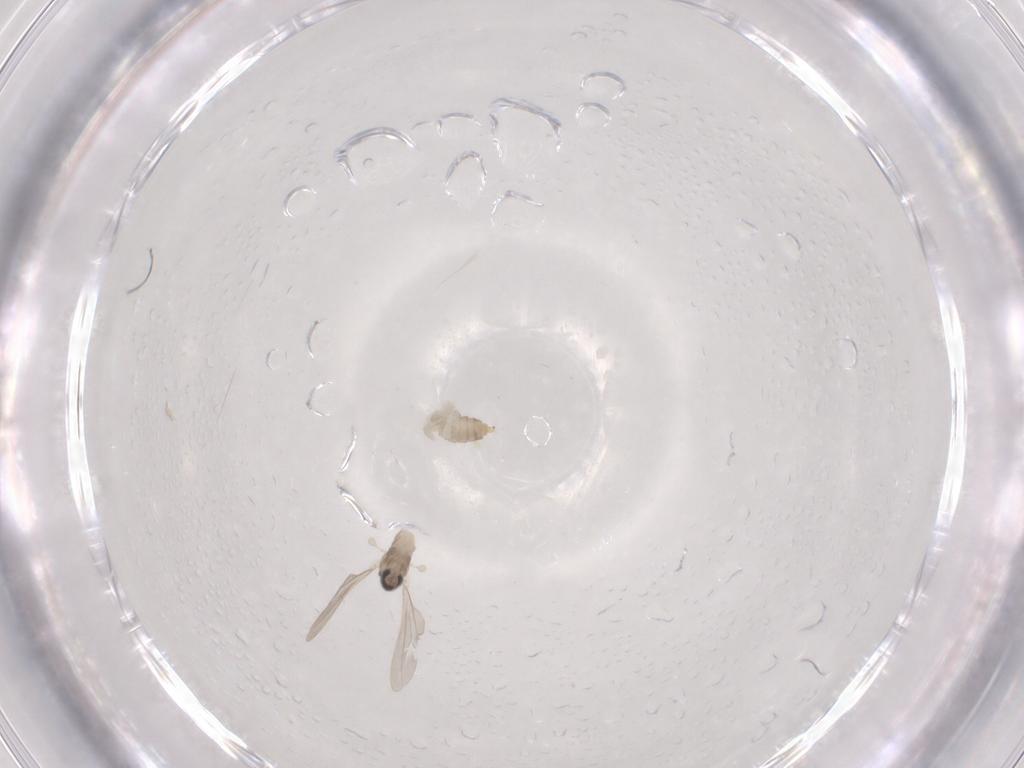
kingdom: Animalia
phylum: Arthropoda
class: Insecta
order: Diptera
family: Cecidomyiidae
